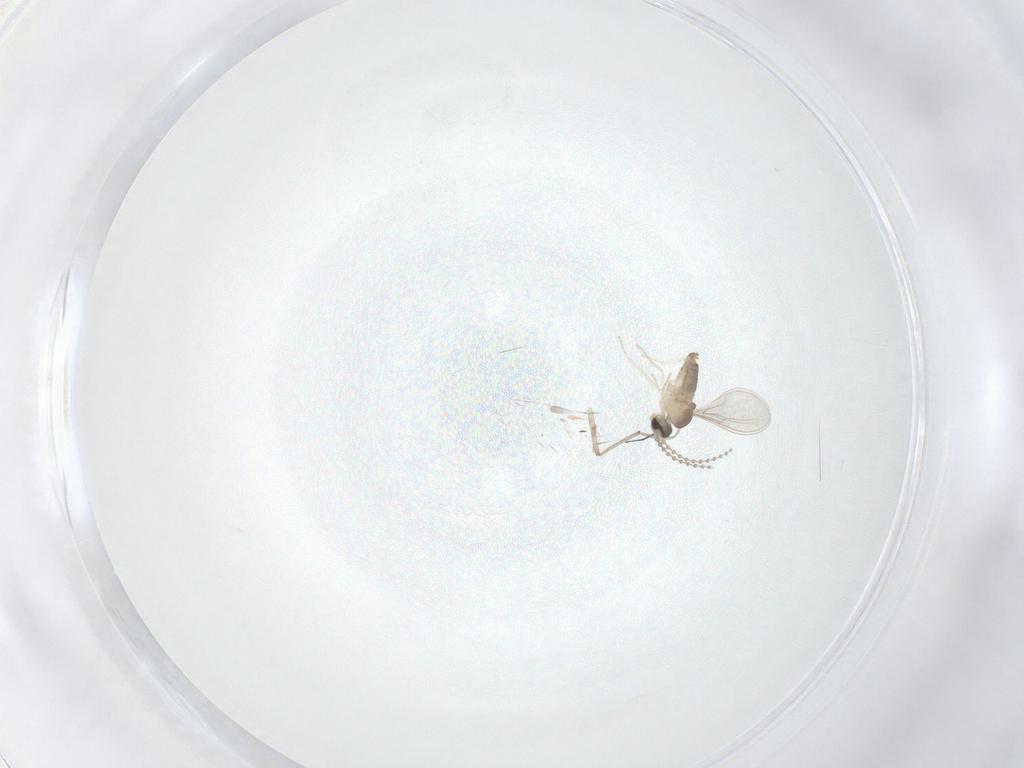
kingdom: Animalia
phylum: Arthropoda
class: Insecta
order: Diptera
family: Cecidomyiidae
